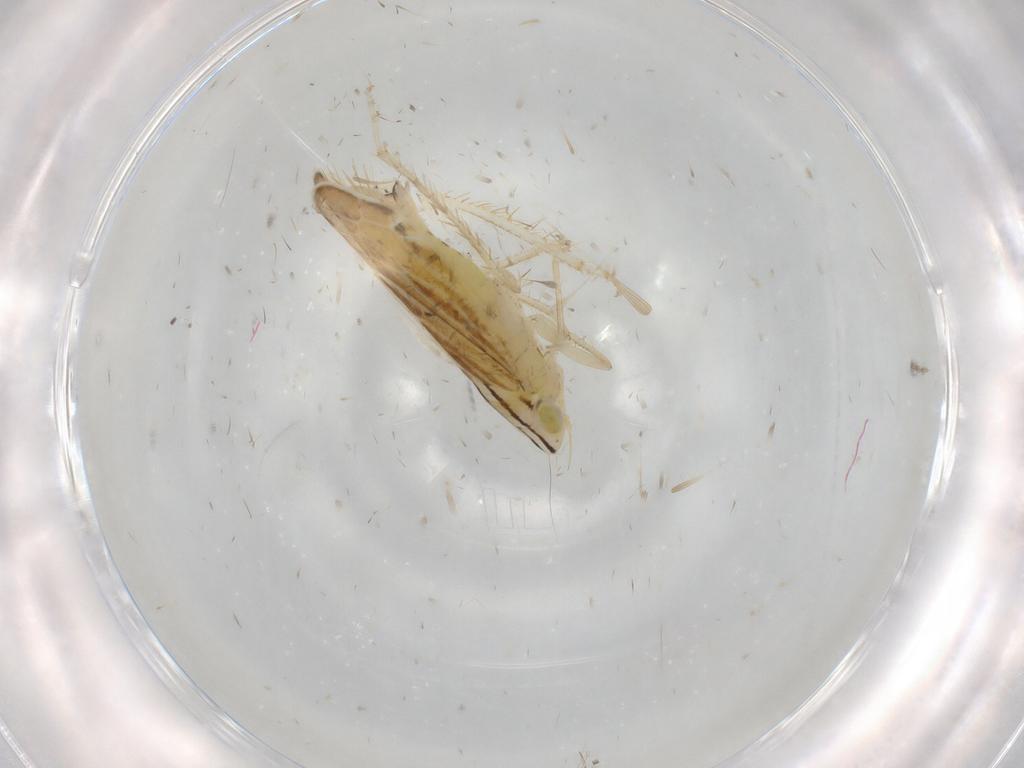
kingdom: Animalia
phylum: Arthropoda
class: Insecta
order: Hemiptera
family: Cicadellidae
